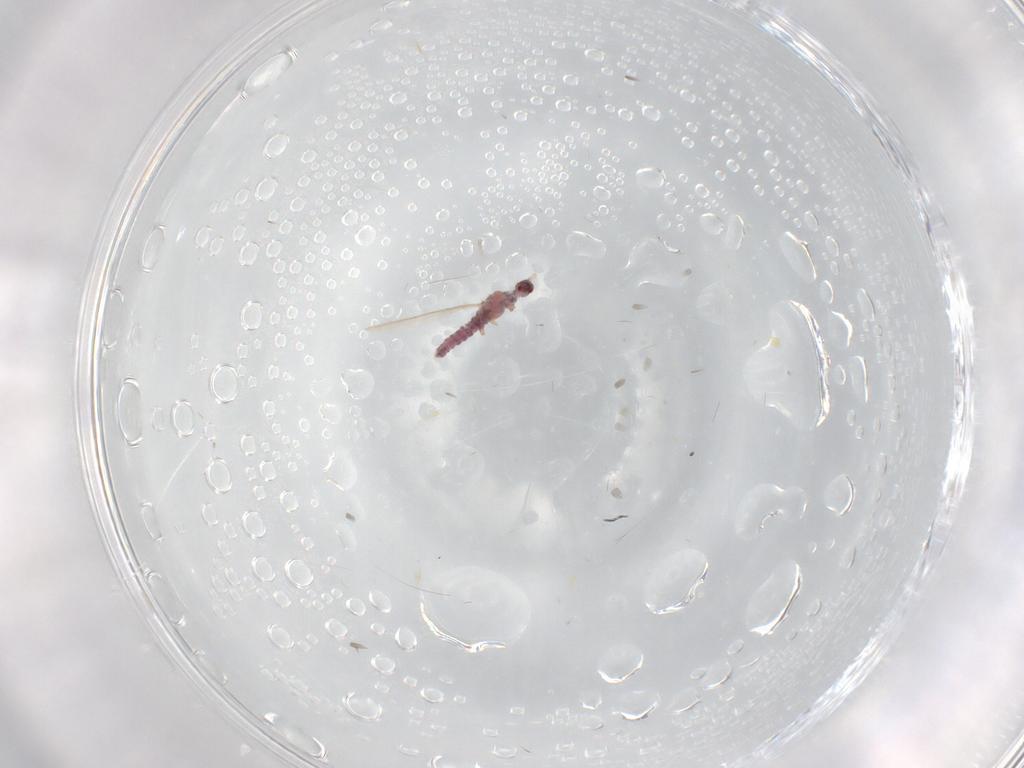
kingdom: Animalia
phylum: Arthropoda
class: Insecta
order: Hemiptera
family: Aleyrodidae
